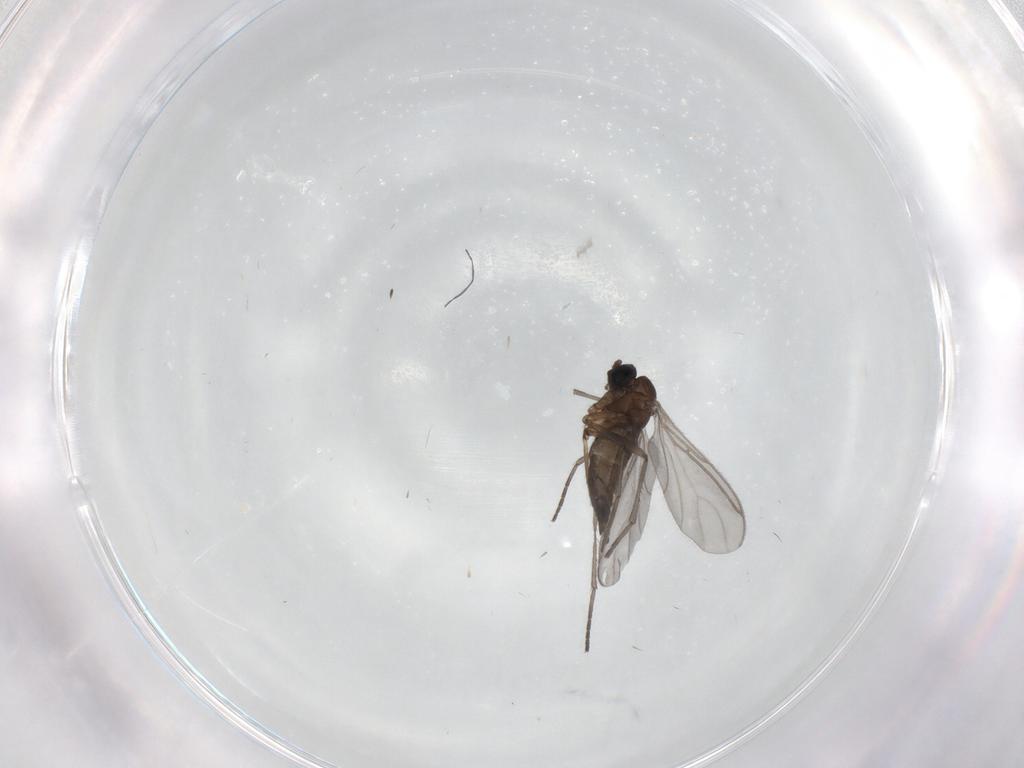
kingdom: Animalia
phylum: Arthropoda
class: Insecta
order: Diptera
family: Sciaridae
